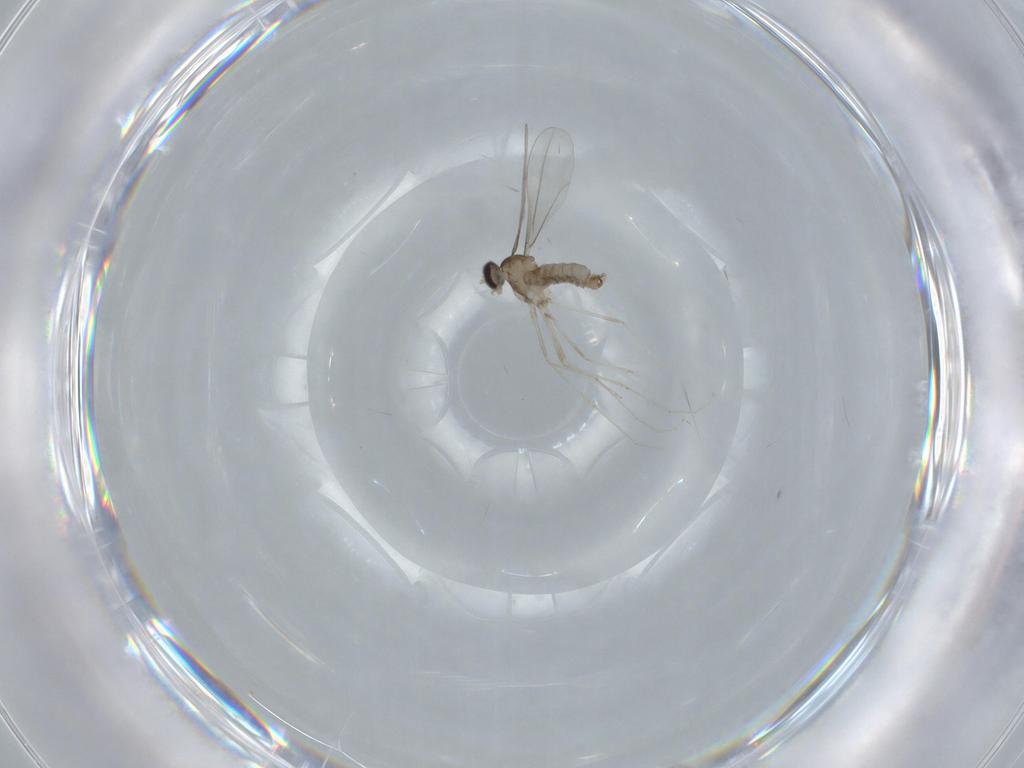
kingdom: Animalia
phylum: Arthropoda
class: Insecta
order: Diptera
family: Cecidomyiidae
